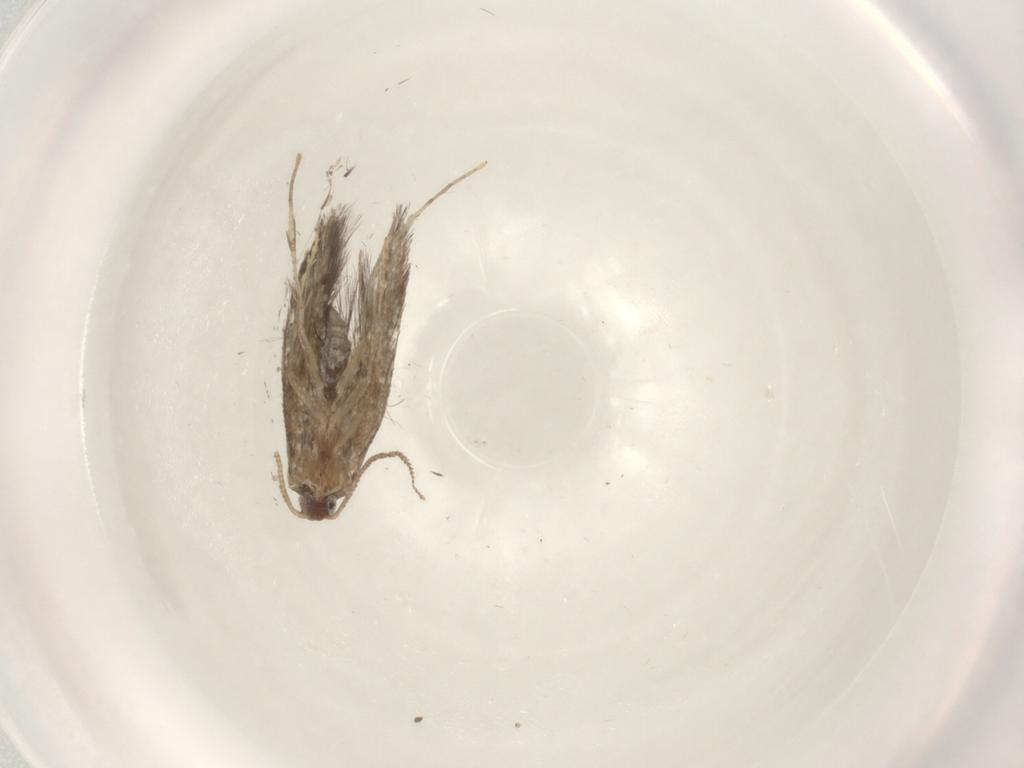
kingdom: Animalia
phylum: Arthropoda
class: Insecta
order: Lepidoptera
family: Tineidae
